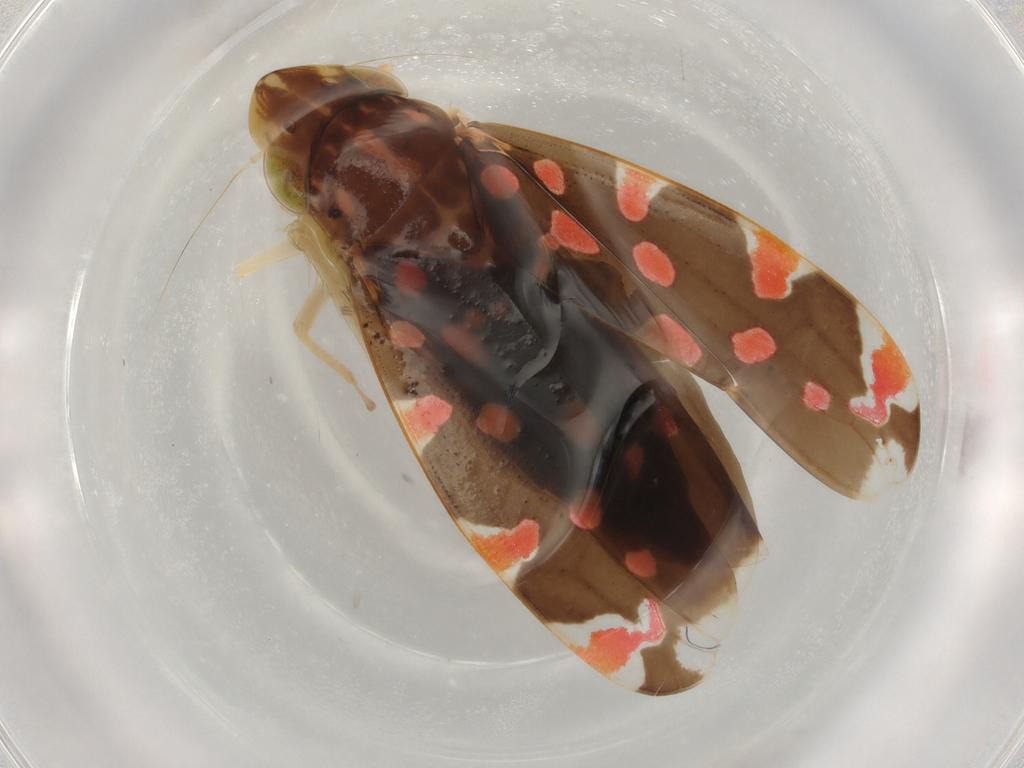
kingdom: Animalia
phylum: Arthropoda
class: Insecta
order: Hemiptera
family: Cicadellidae
